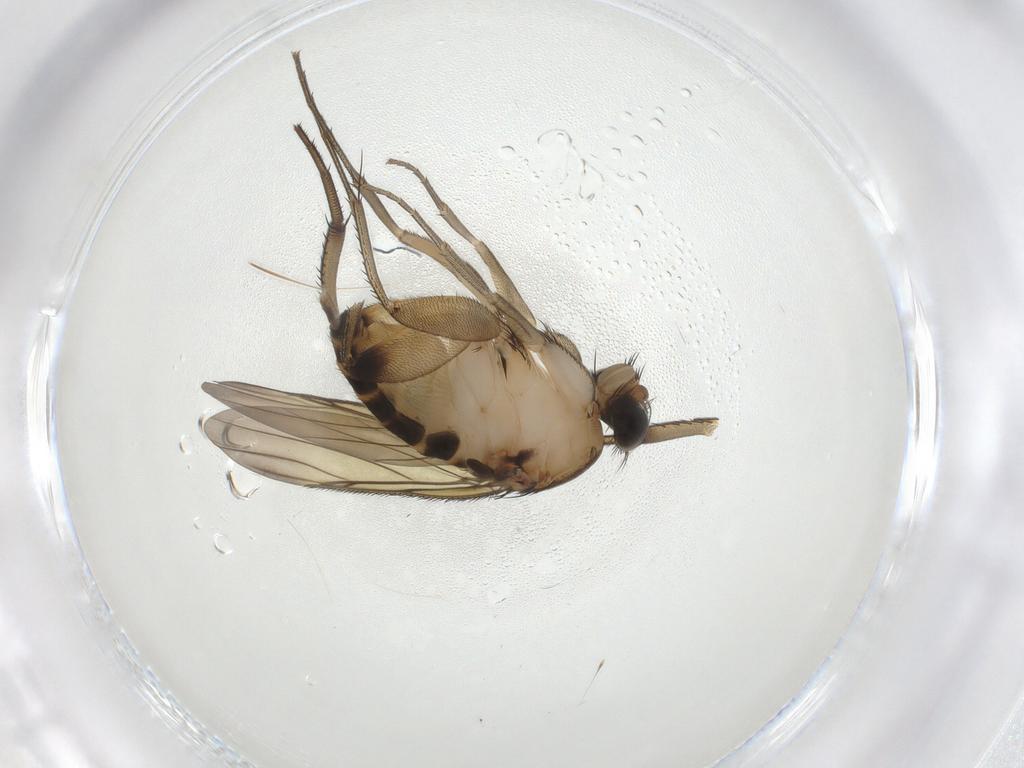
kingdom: Animalia
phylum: Arthropoda
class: Insecta
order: Diptera
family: Phoridae
